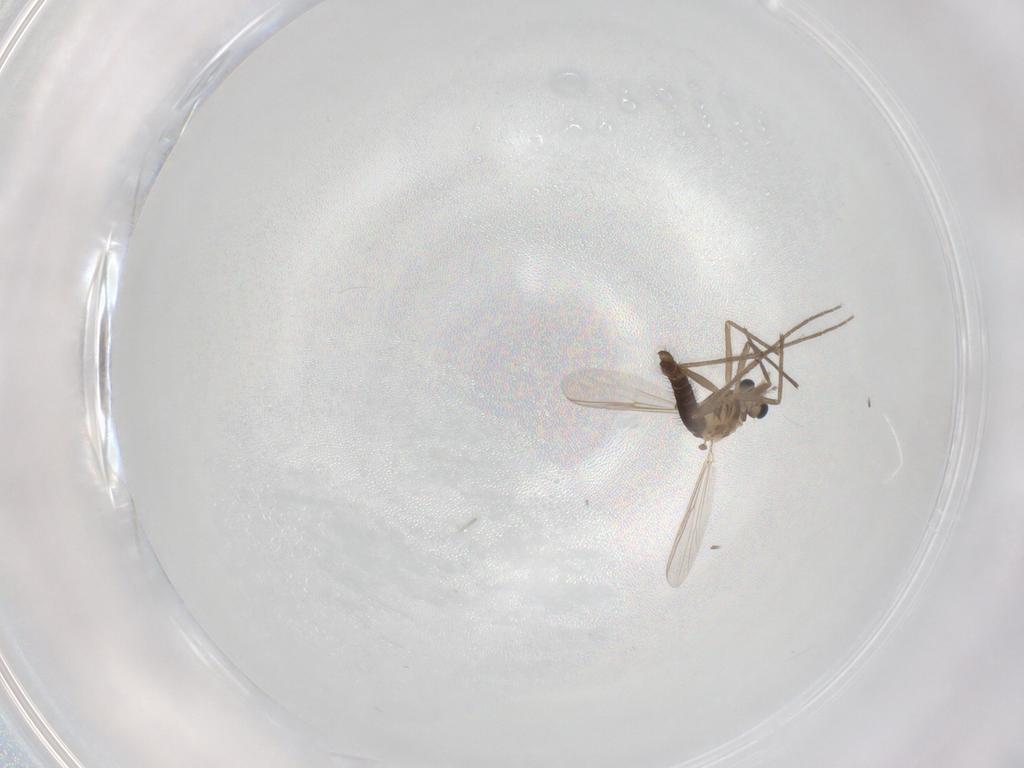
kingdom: Animalia
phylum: Arthropoda
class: Insecta
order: Diptera
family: Chironomidae
